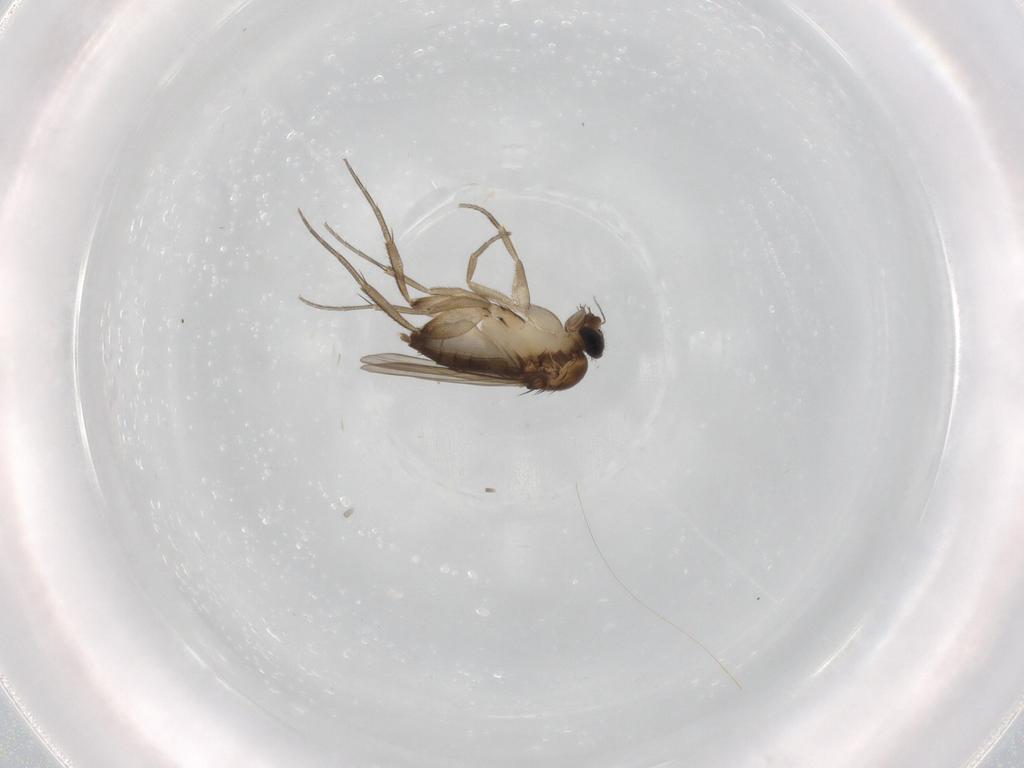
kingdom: Animalia
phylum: Arthropoda
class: Insecta
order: Diptera
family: Phoridae
